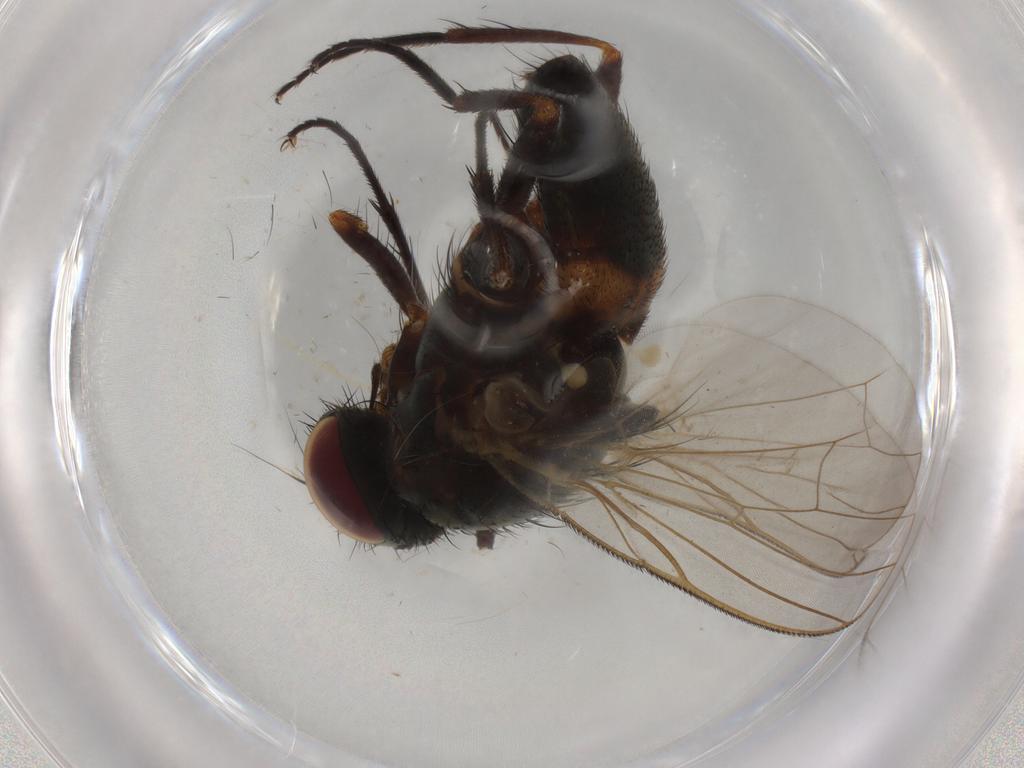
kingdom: Animalia
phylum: Arthropoda
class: Insecta
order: Diptera
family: Fannia
